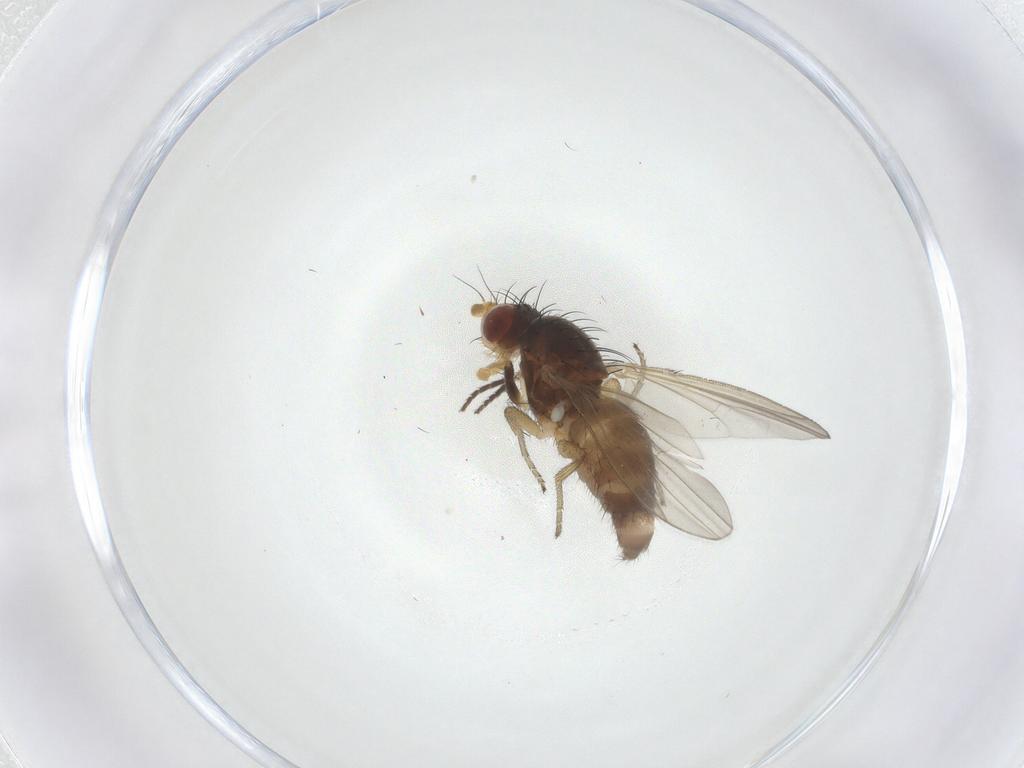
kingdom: Animalia
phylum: Arthropoda
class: Insecta
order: Diptera
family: Heleomyzidae
